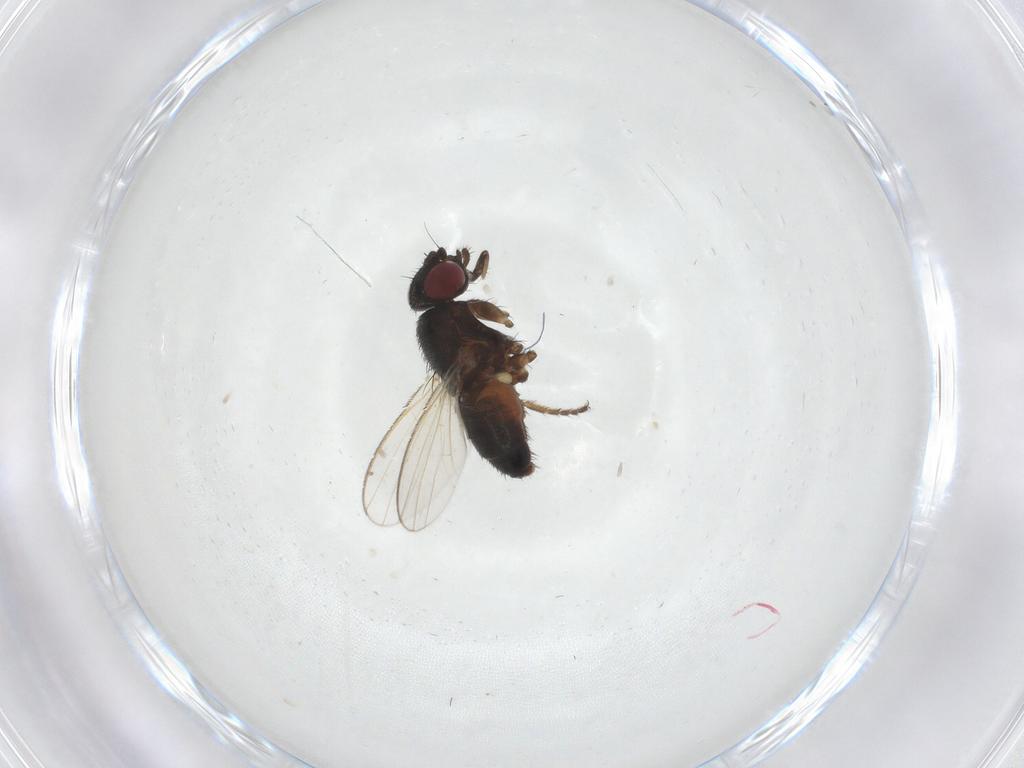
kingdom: Animalia
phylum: Arthropoda
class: Insecta
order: Diptera
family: Milichiidae
